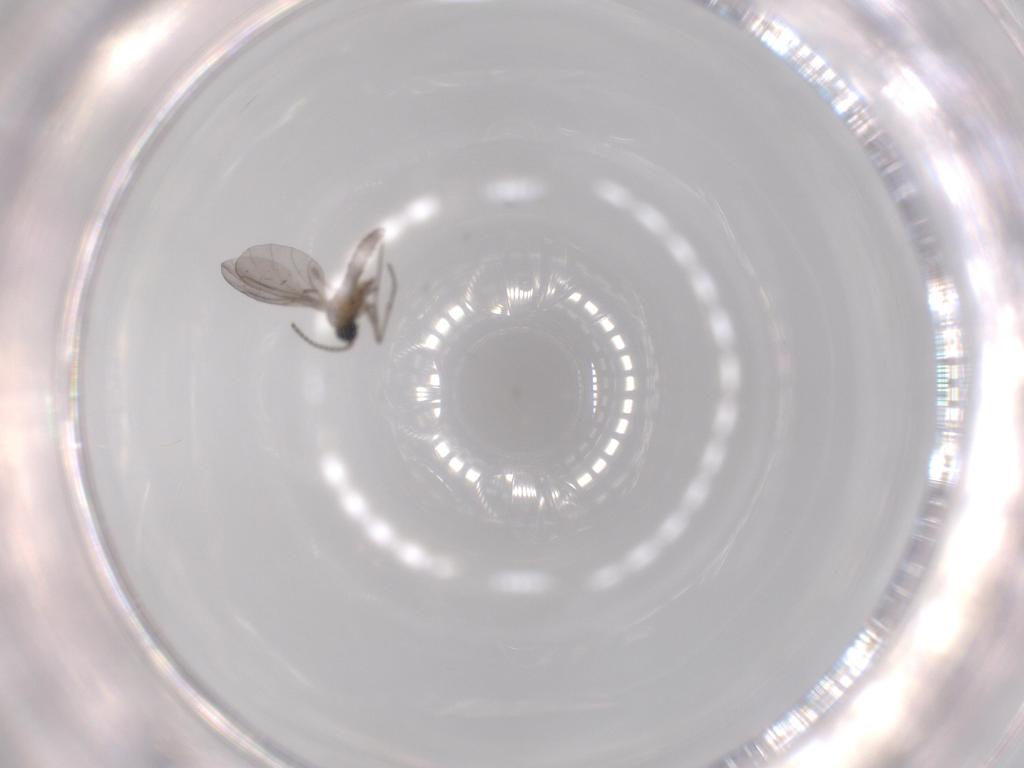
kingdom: Animalia
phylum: Arthropoda
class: Insecta
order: Diptera
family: Sciaridae
